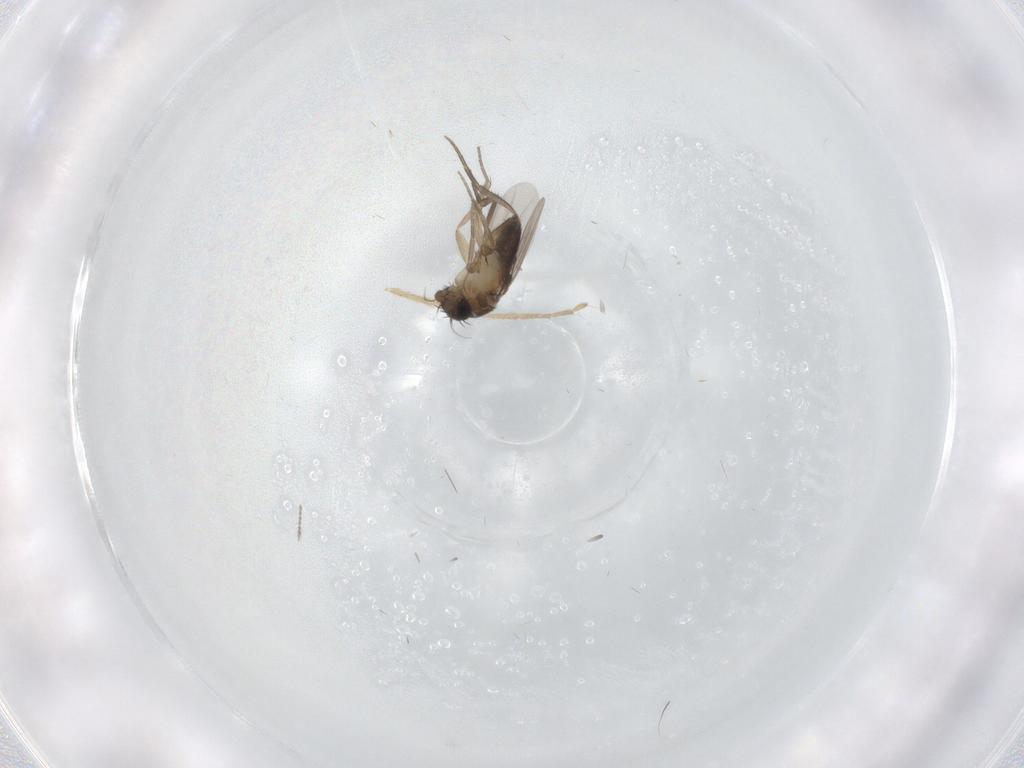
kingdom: Animalia
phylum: Arthropoda
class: Insecta
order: Diptera
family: Phoridae
